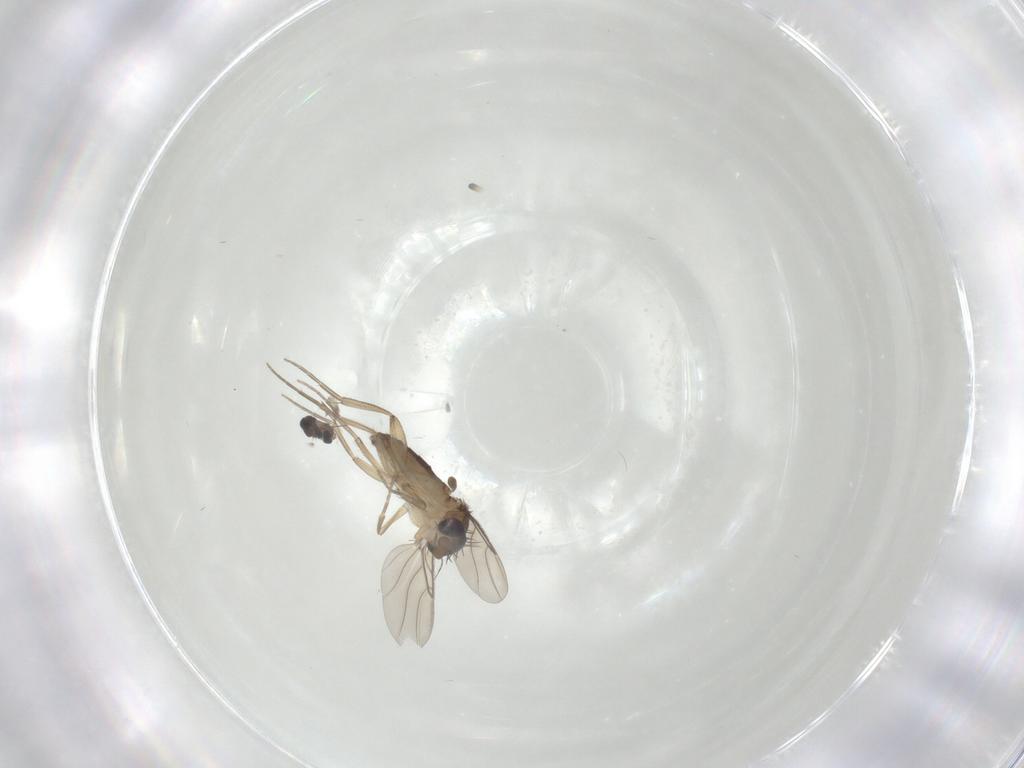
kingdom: Animalia
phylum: Arthropoda
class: Insecta
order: Diptera
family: Phoridae
